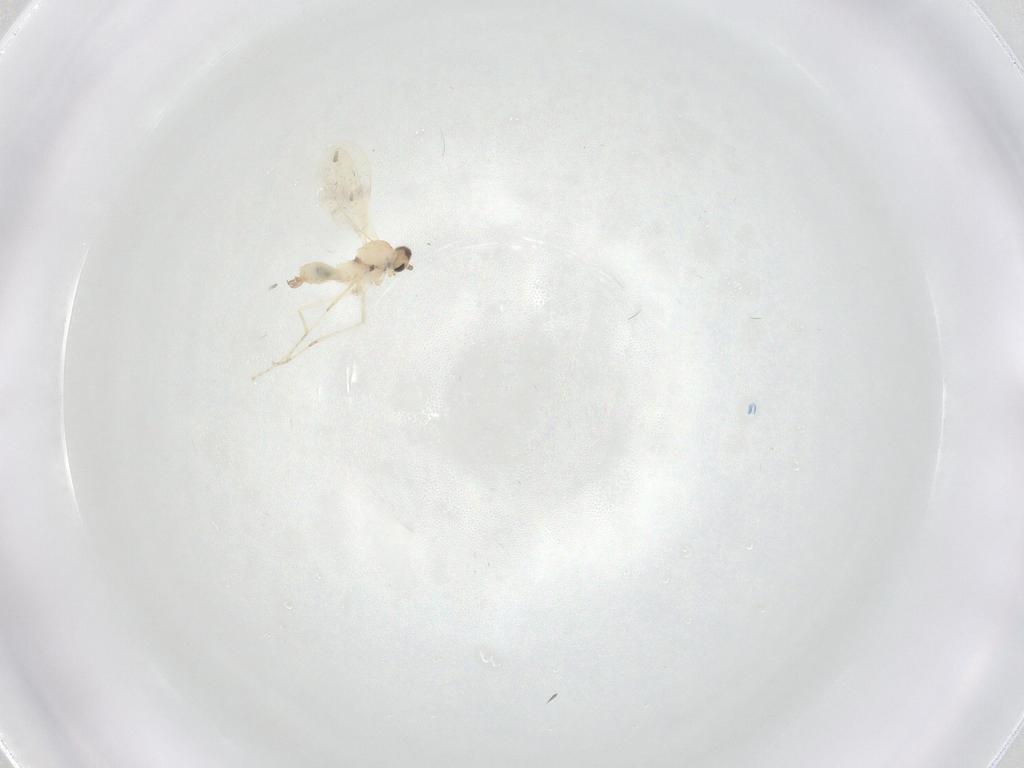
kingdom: Animalia
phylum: Arthropoda
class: Insecta
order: Diptera
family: Cecidomyiidae
